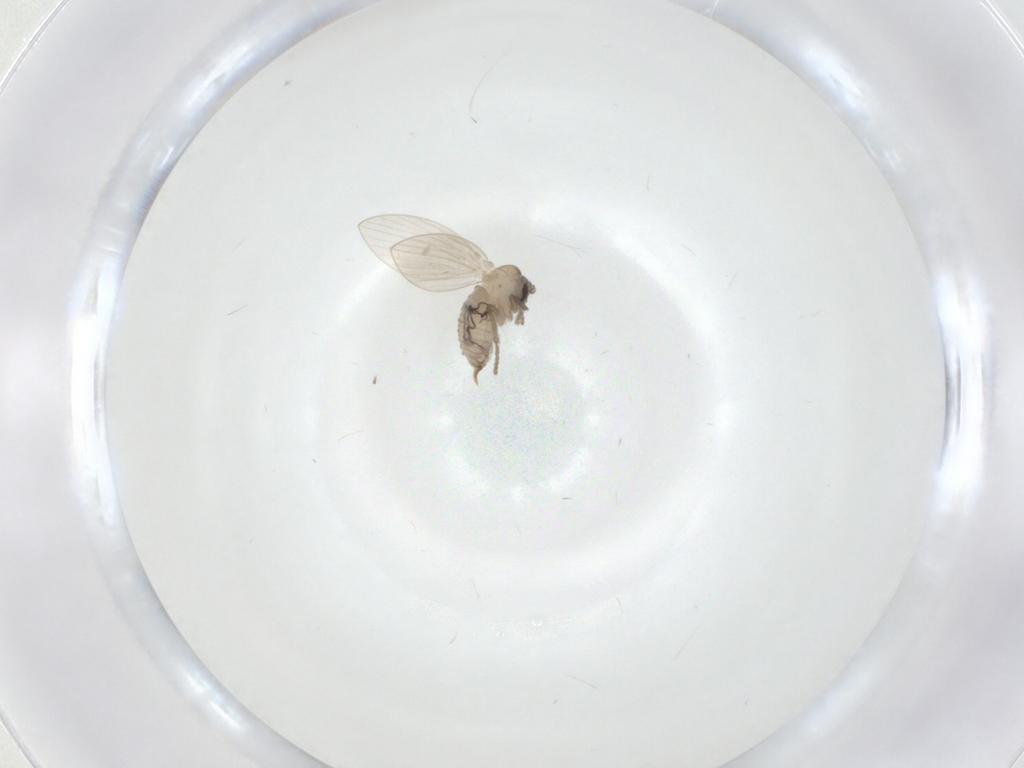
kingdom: Animalia
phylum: Arthropoda
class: Insecta
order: Diptera
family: Psychodidae
